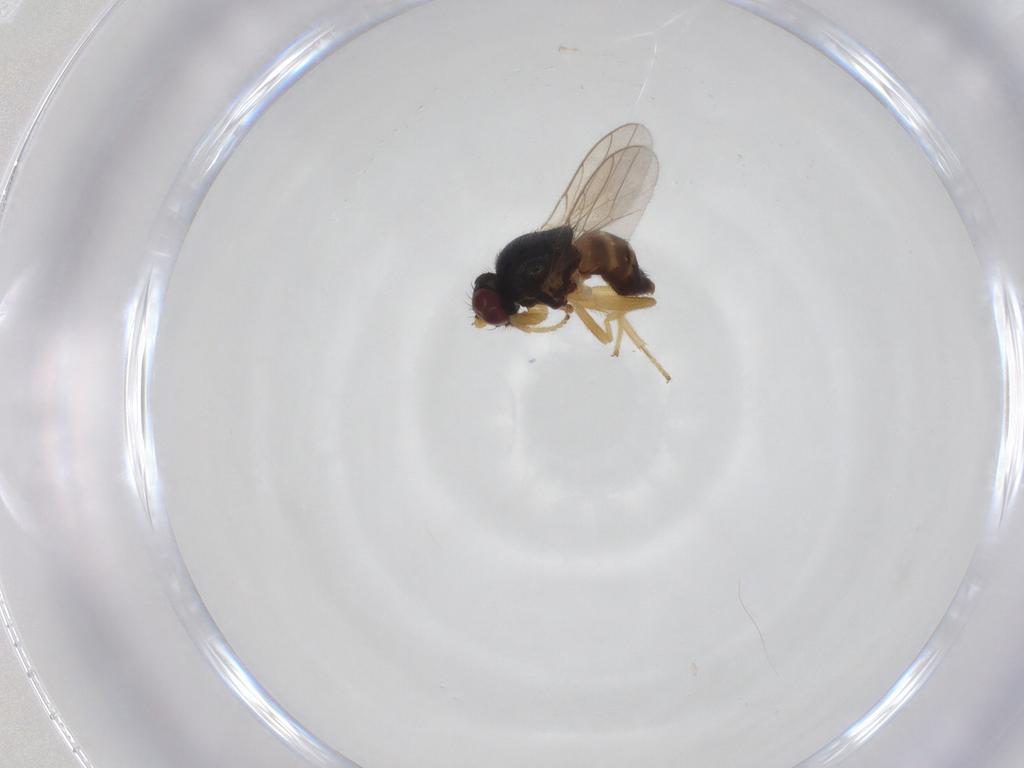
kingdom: Animalia
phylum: Arthropoda
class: Insecta
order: Diptera
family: Chloropidae
